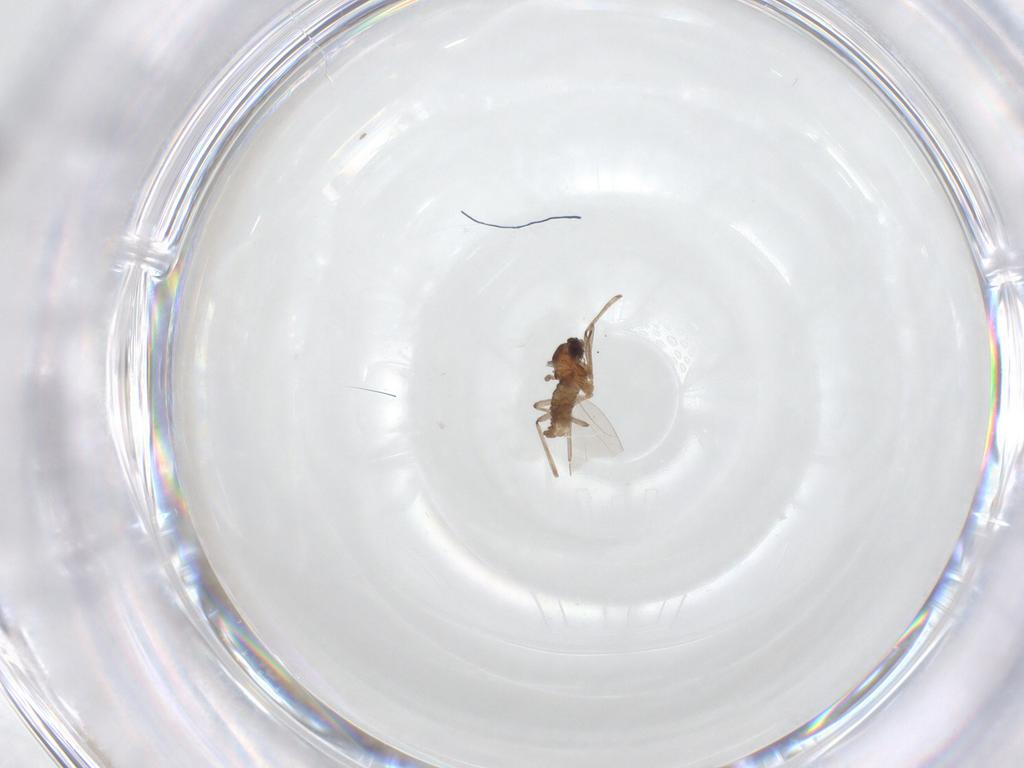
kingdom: Animalia
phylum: Arthropoda
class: Insecta
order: Diptera
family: Cecidomyiidae
